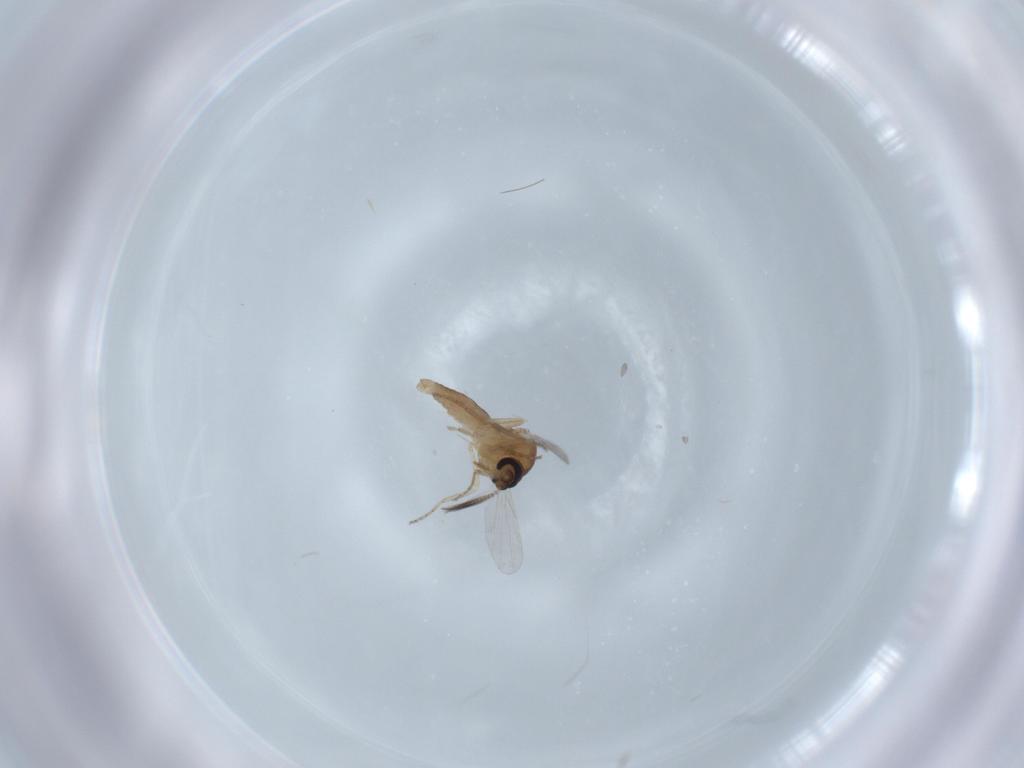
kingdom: Animalia
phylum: Arthropoda
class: Insecta
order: Diptera
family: Ceratopogonidae
